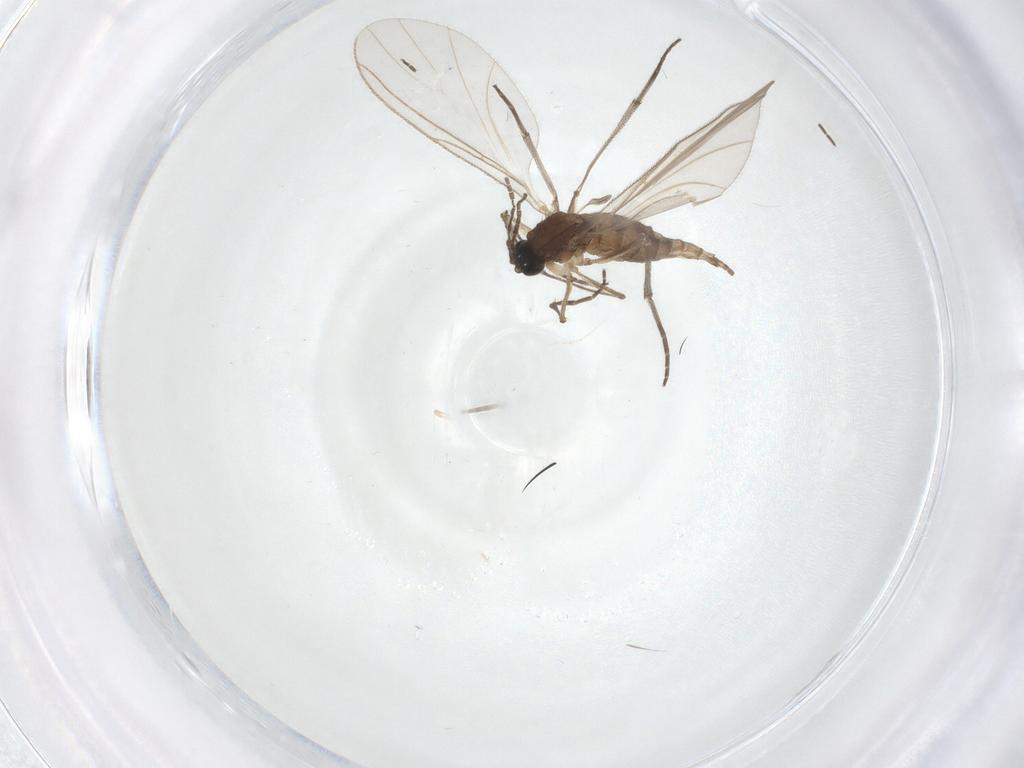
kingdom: Animalia
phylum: Arthropoda
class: Insecta
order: Diptera
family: Sciaridae
